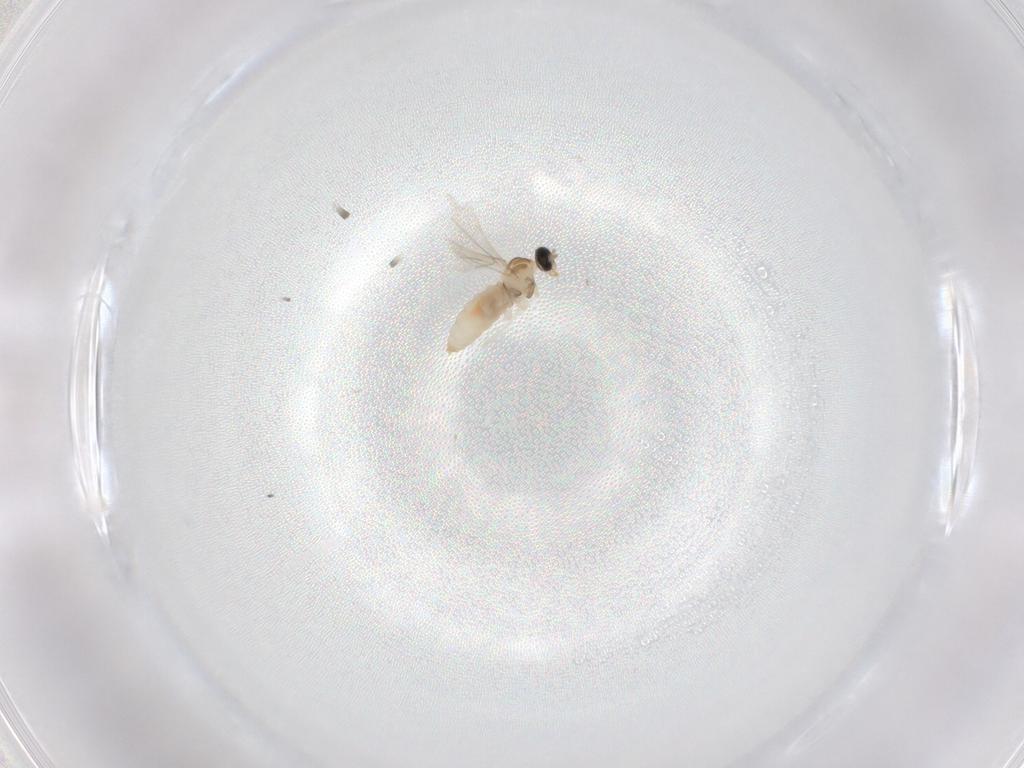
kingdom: Animalia
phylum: Arthropoda
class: Insecta
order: Diptera
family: Cecidomyiidae
